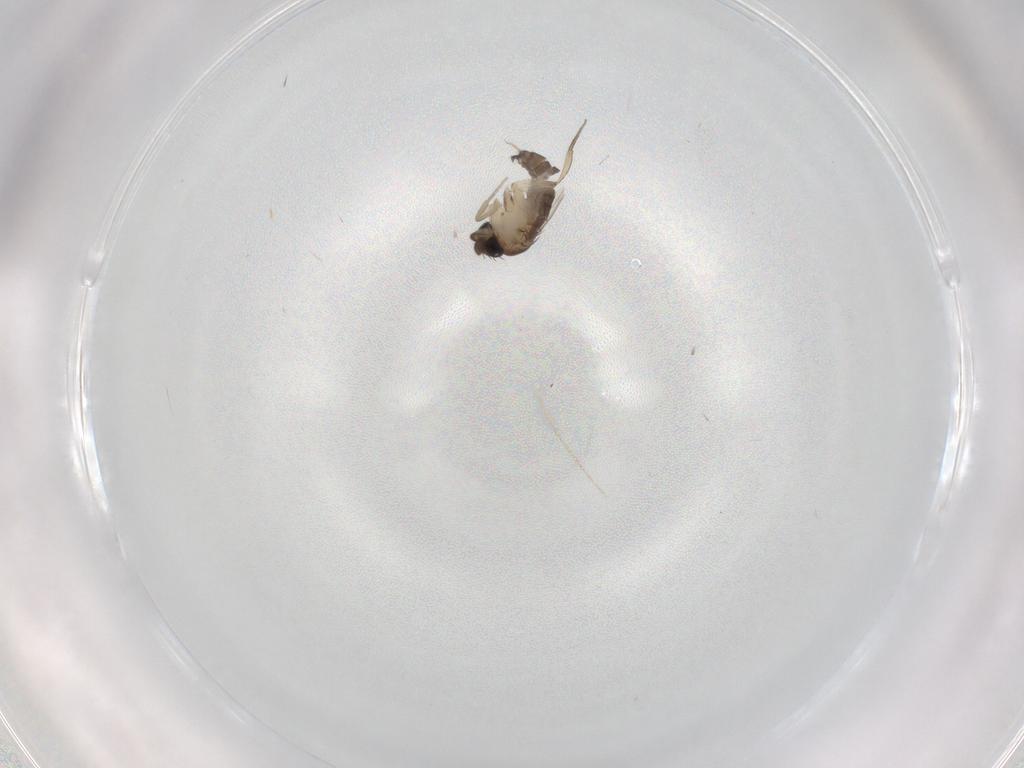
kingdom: Animalia
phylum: Arthropoda
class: Insecta
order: Diptera
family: Phoridae
